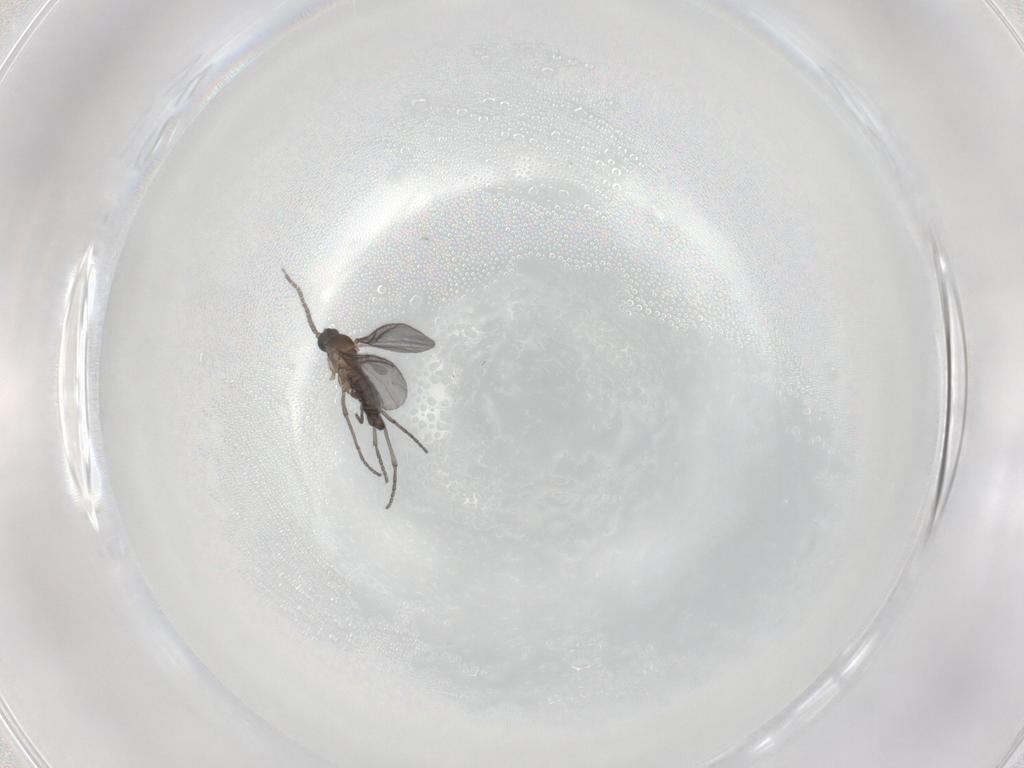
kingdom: Animalia
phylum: Arthropoda
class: Insecta
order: Diptera
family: Sciaridae
